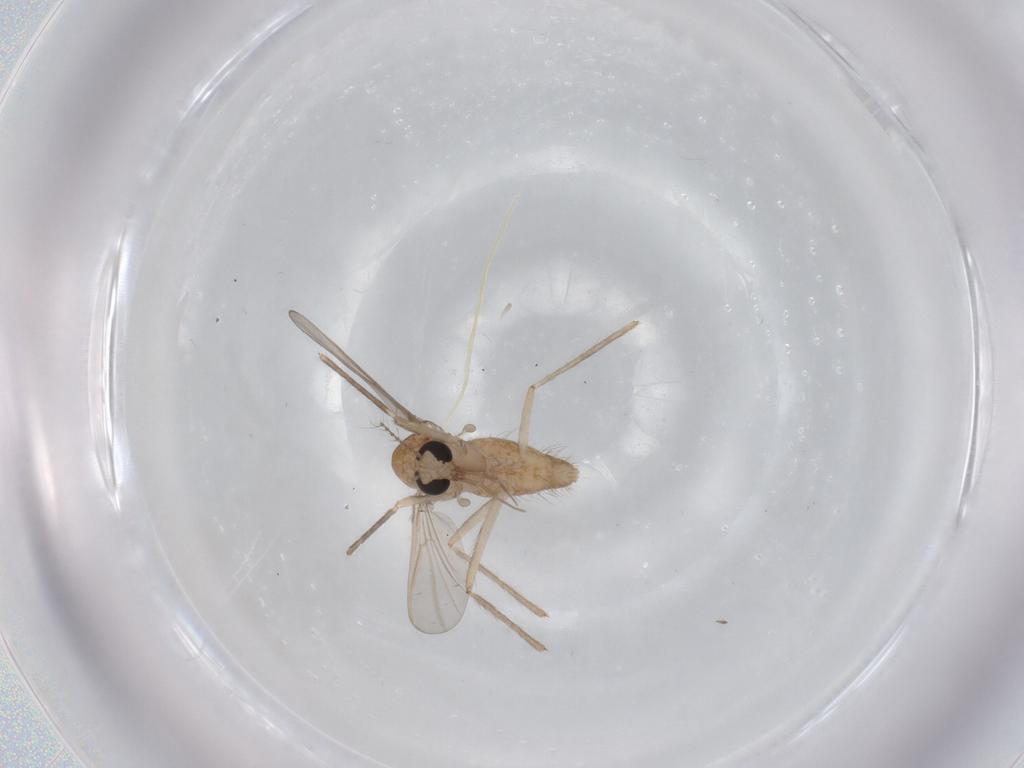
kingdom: Animalia
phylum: Arthropoda
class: Insecta
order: Diptera
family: Chironomidae
